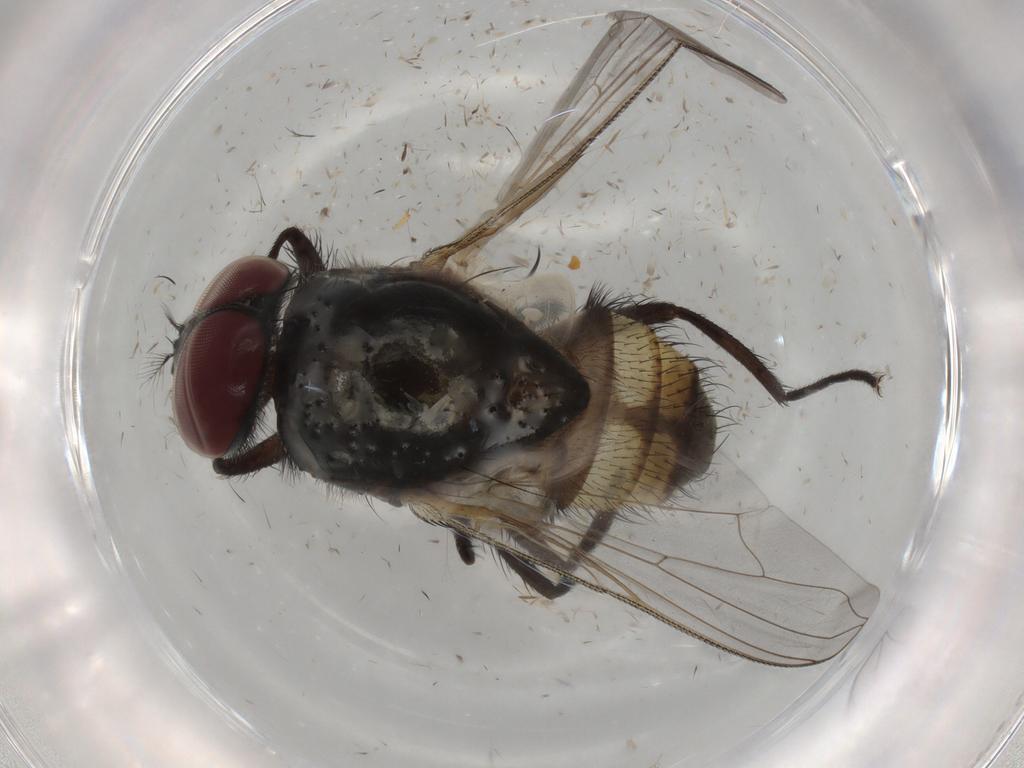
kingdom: Animalia
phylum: Arthropoda
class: Insecta
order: Diptera
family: Muscidae
